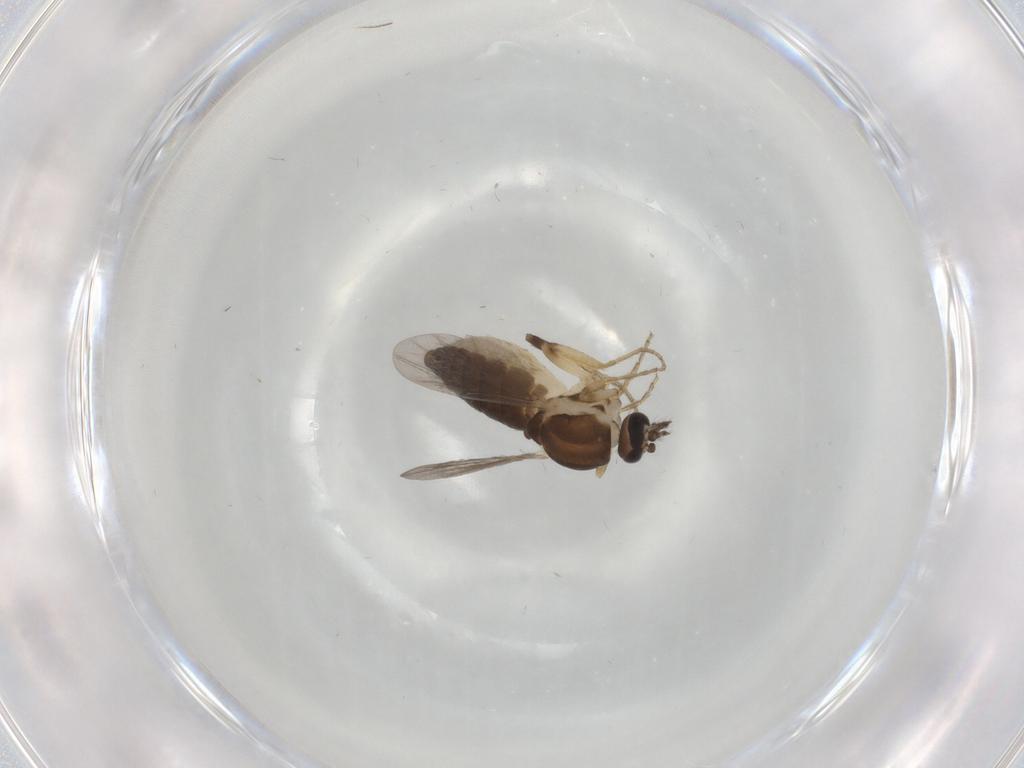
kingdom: Animalia
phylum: Arthropoda
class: Insecta
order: Diptera
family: Ceratopogonidae
